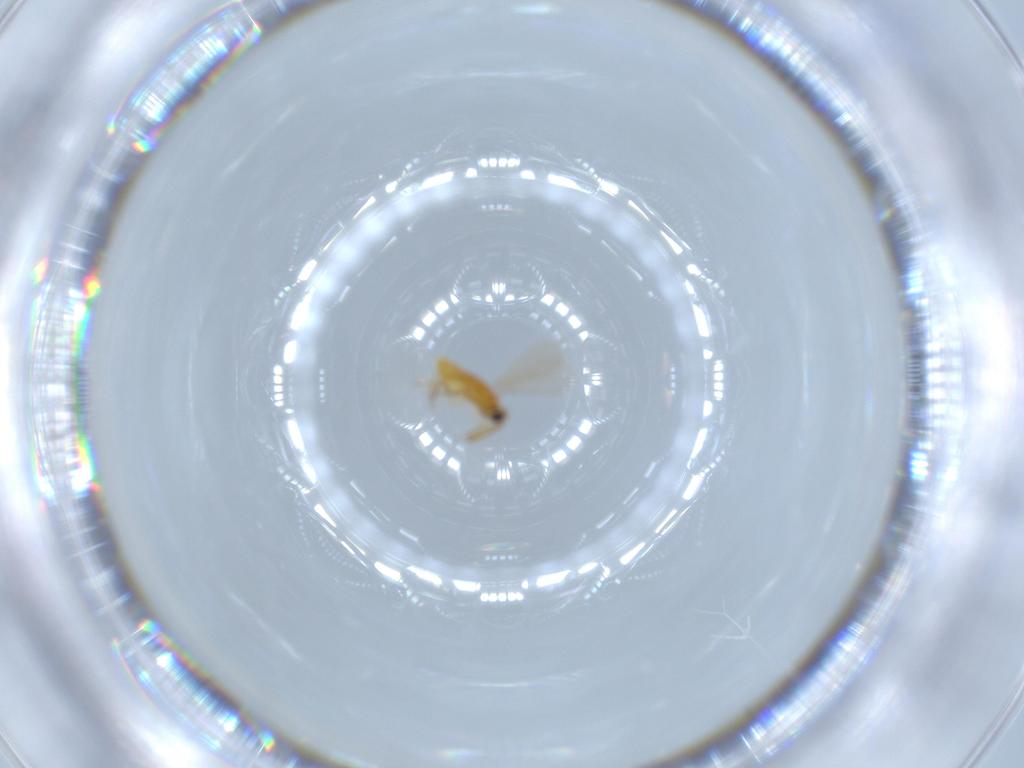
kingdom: Animalia
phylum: Arthropoda
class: Insecta
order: Hymenoptera
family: Aphelinidae
